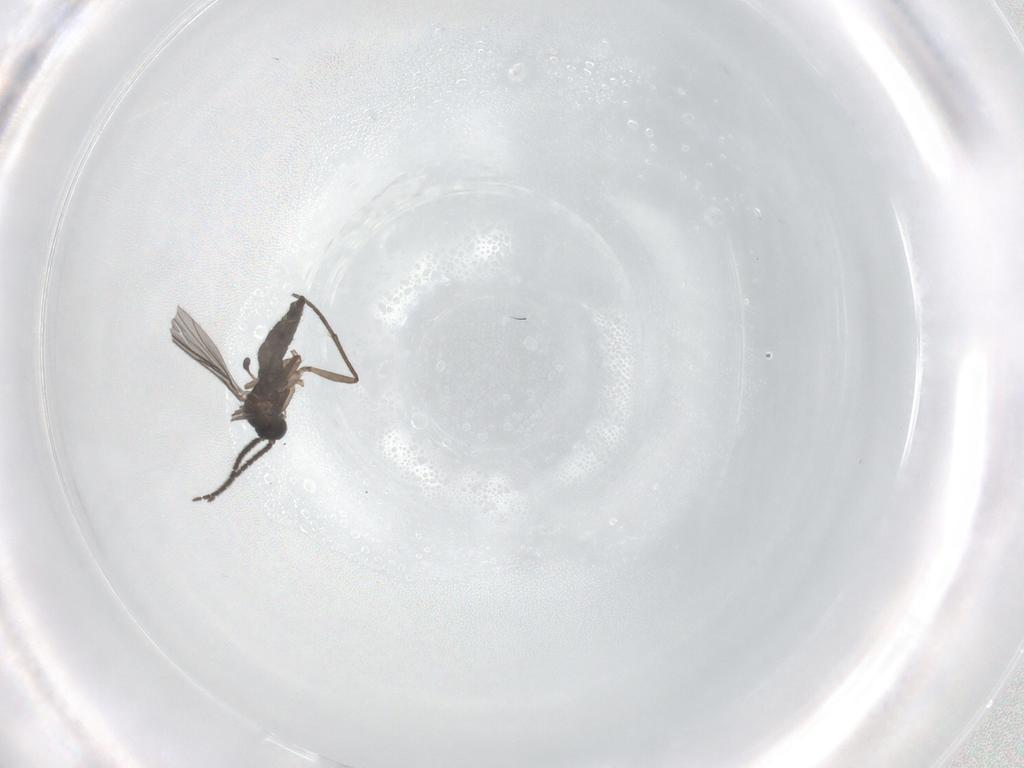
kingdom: Animalia
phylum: Arthropoda
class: Insecta
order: Diptera
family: Sciaridae
